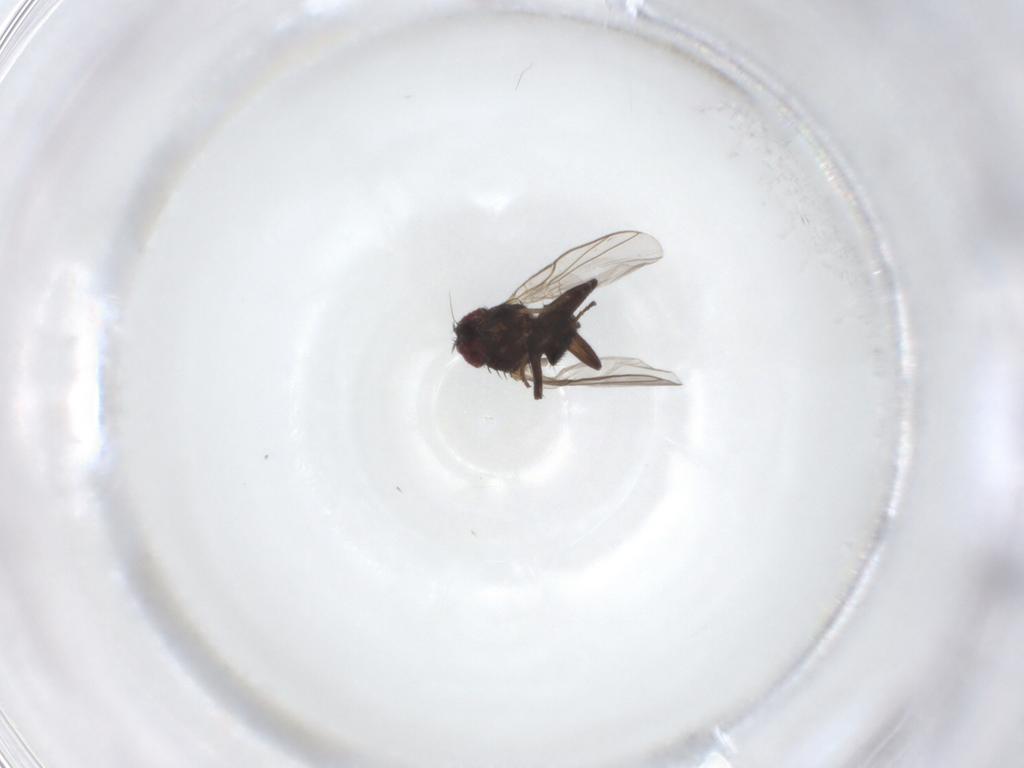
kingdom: Animalia
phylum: Arthropoda
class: Insecta
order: Diptera
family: Agromyzidae
